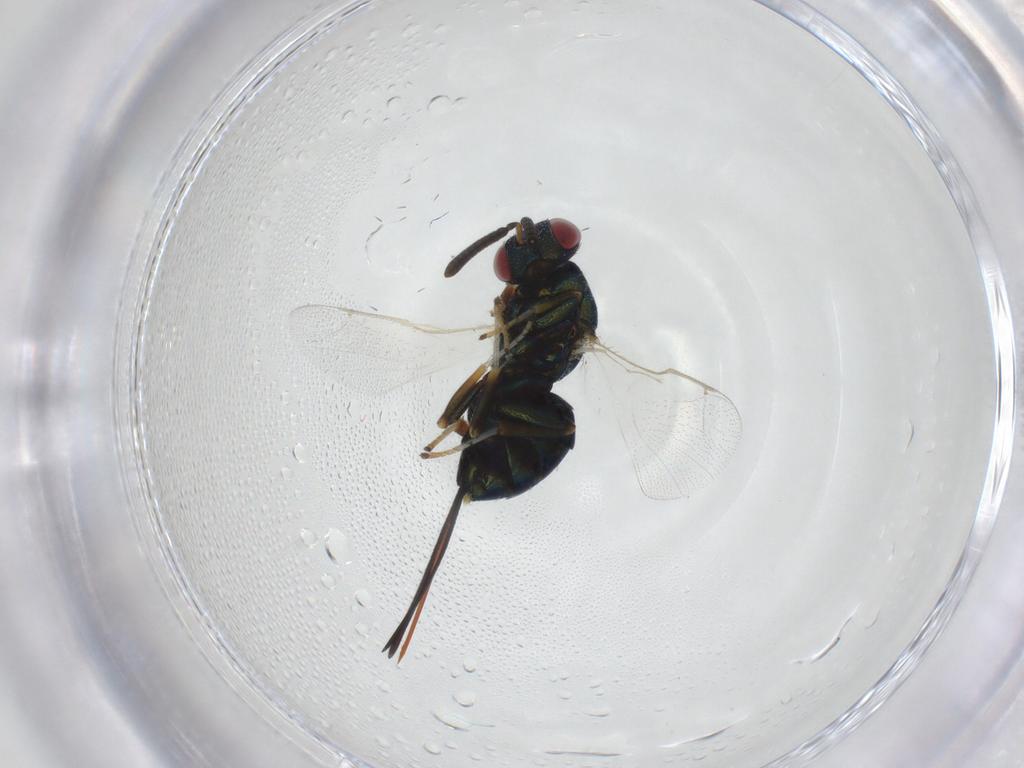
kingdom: Animalia
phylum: Arthropoda
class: Insecta
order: Hymenoptera
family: Torymidae
